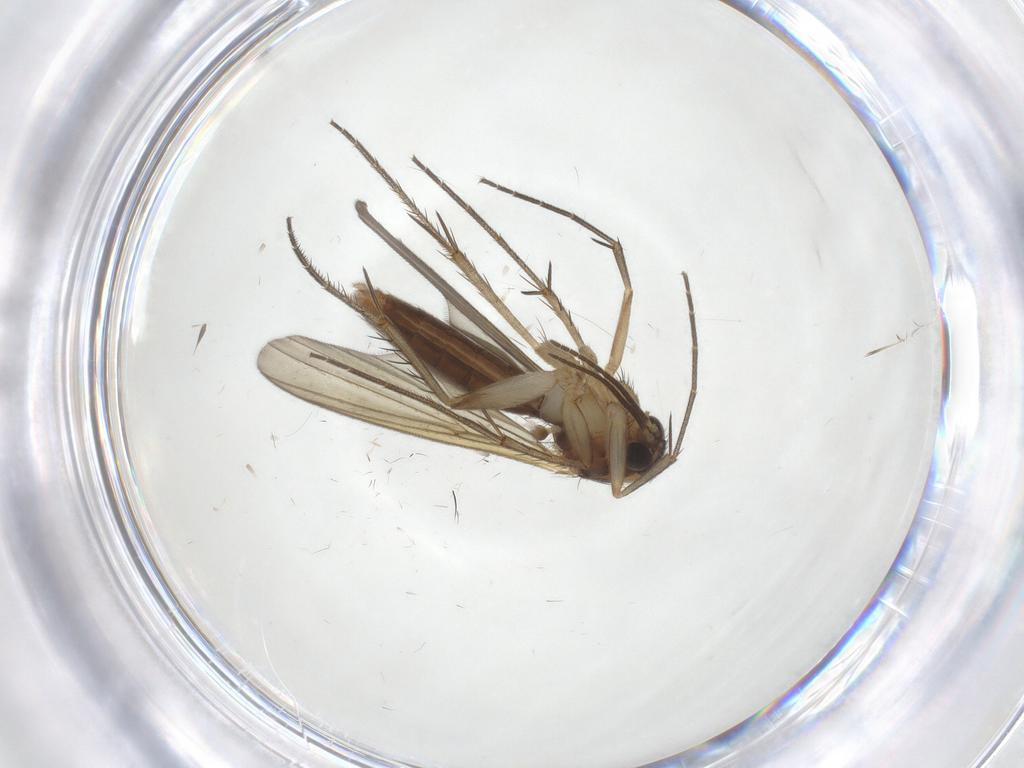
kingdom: Animalia
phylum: Arthropoda
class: Insecta
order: Diptera
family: Mycetophilidae
